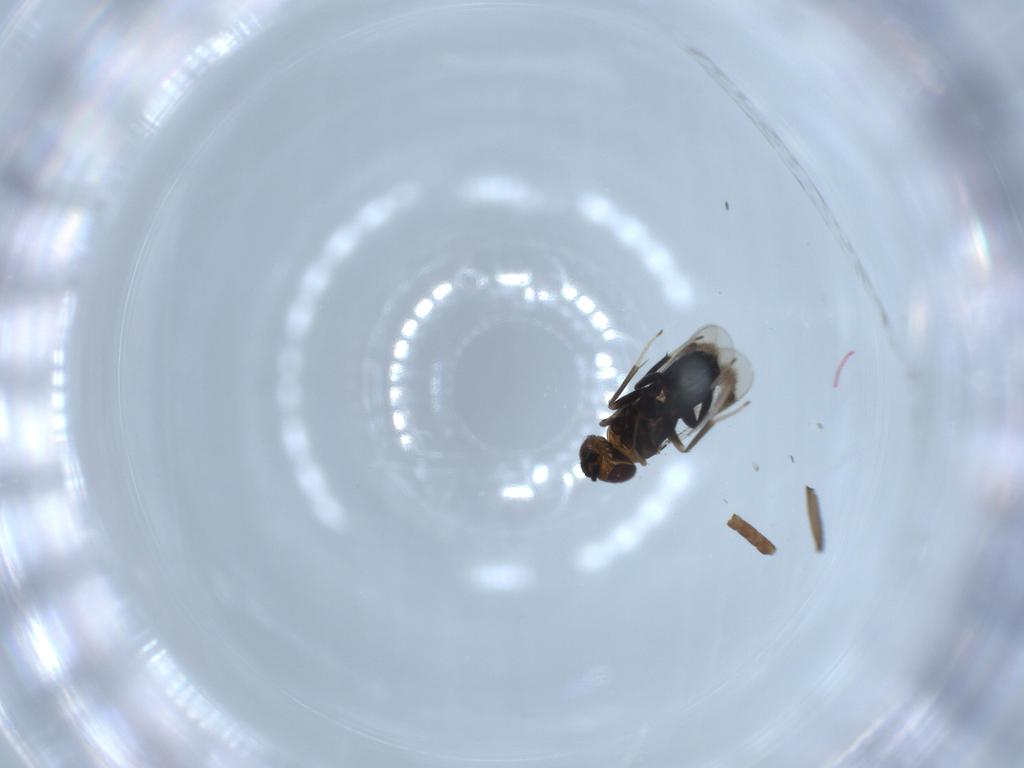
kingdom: Animalia
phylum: Arthropoda
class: Insecta
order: Hymenoptera
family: Aphelinidae
